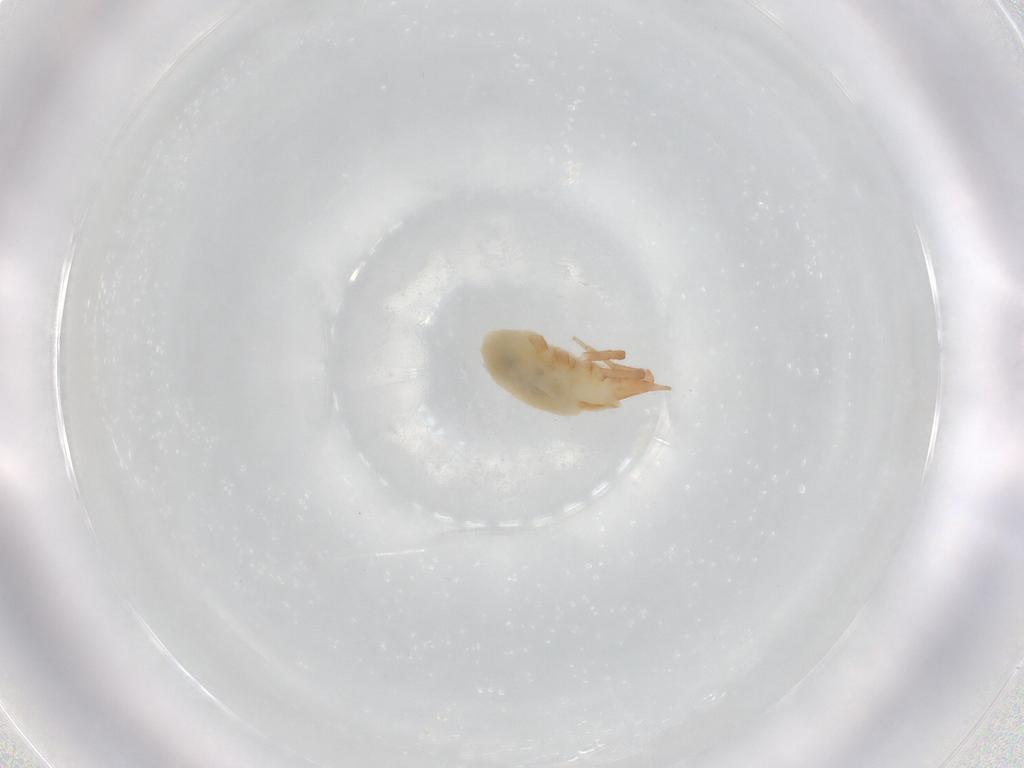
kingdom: Animalia
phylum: Arthropoda
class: Arachnida
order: Trombidiformes
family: Bdellidae
